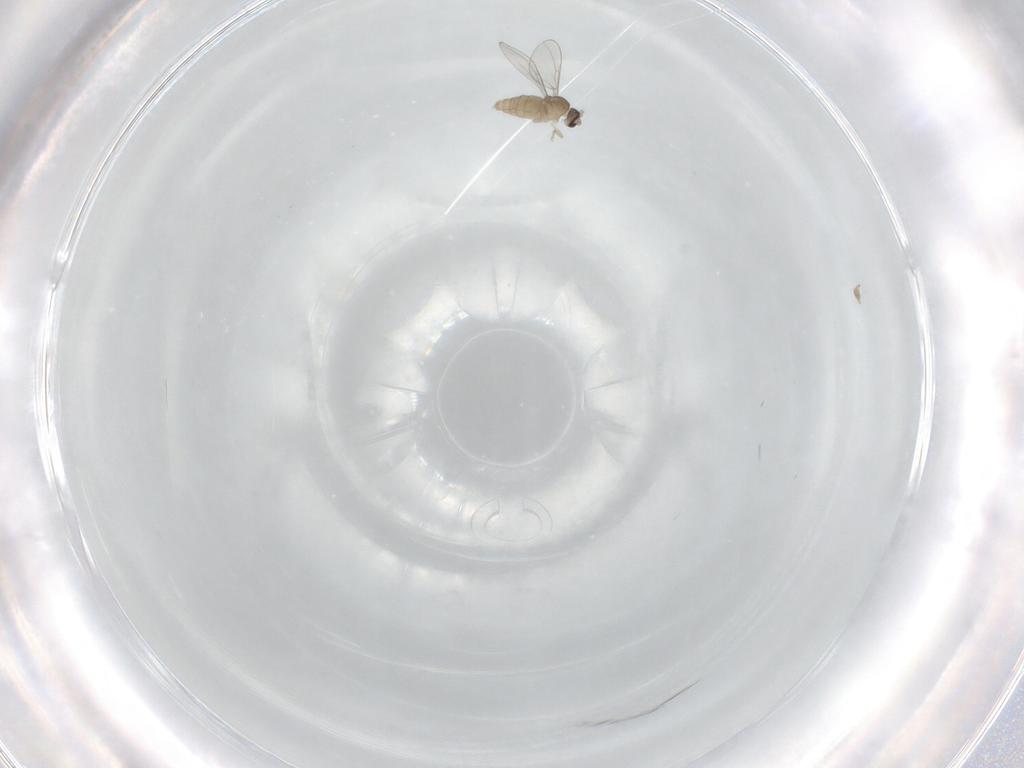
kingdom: Animalia
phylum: Arthropoda
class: Insecta
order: Diptera
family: Cecidomyiidae
